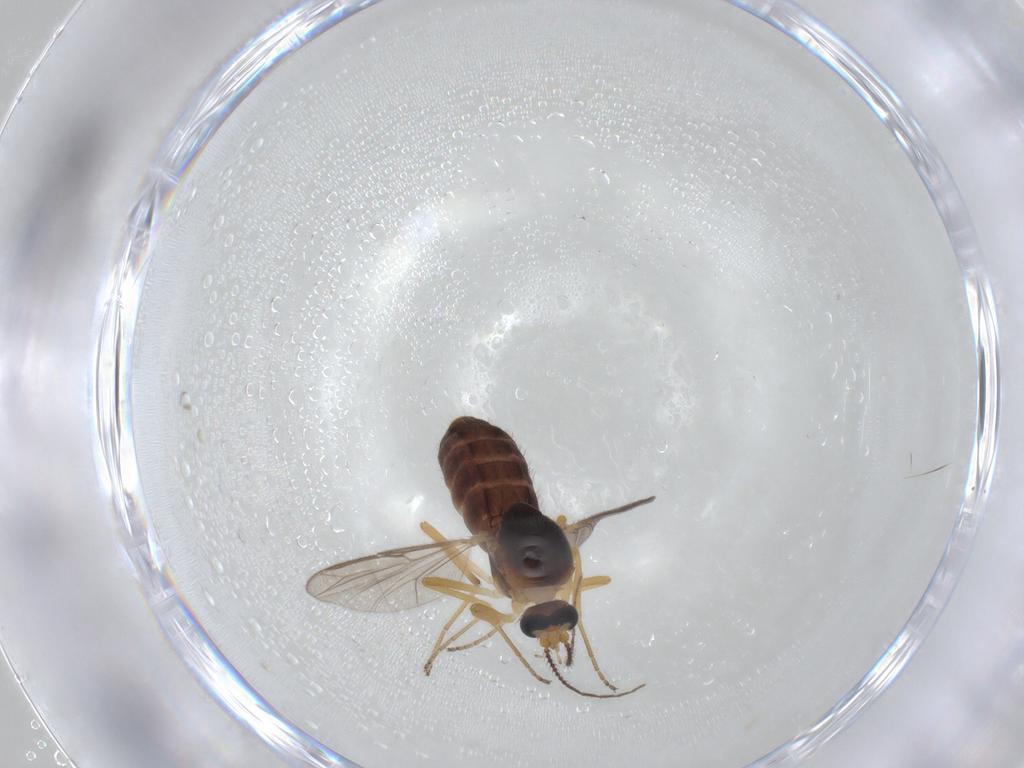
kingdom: Animalia
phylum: Arthropoda
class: Insecta
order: Diptera
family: Ceratopogonidae
